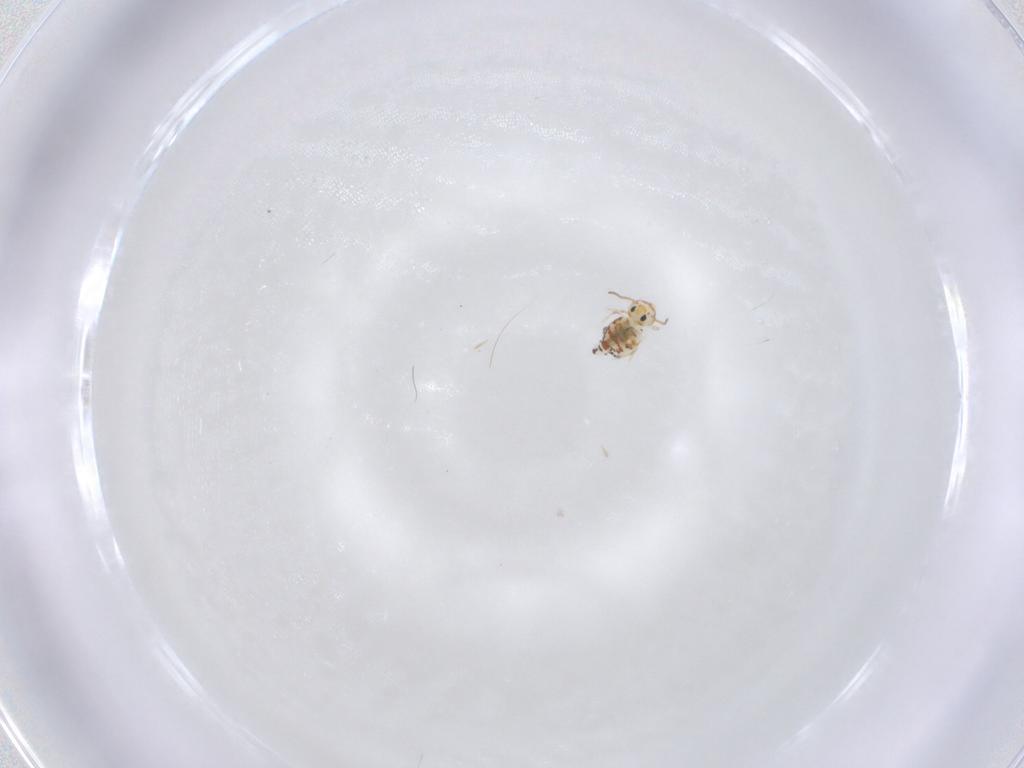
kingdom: Animalia
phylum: Arthropoda
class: Collembola
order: Symphypleona
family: Bourletiellidae
